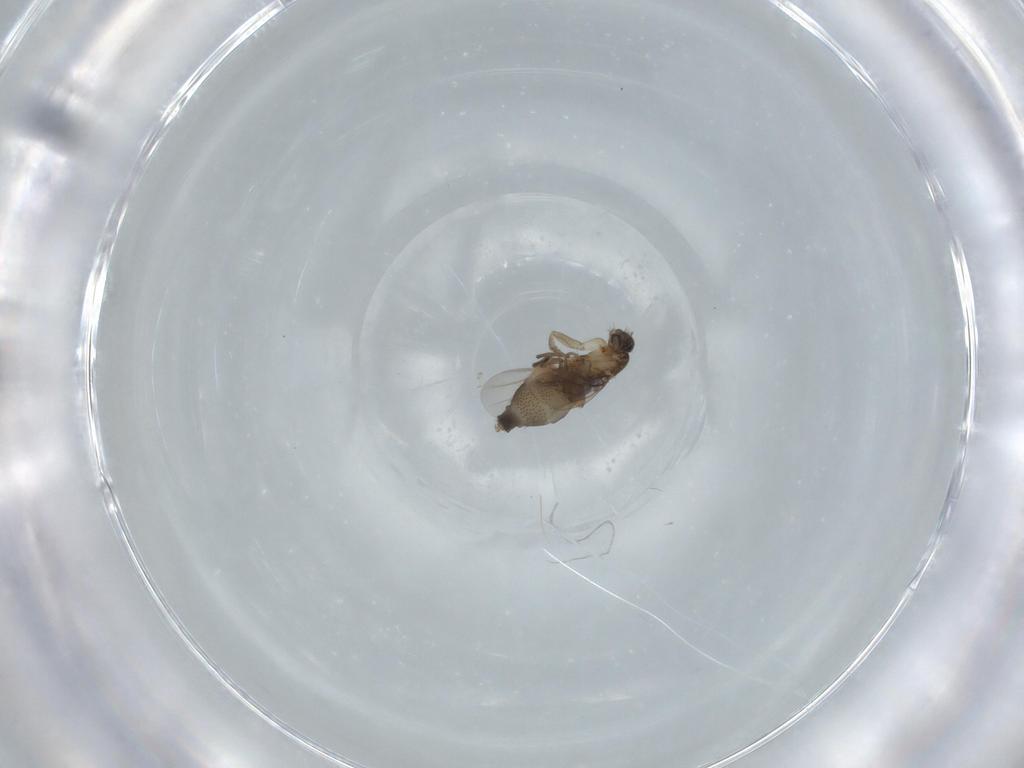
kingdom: Animalia
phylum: Arthropoda
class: Insecta
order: Diptera
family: Phoridae
